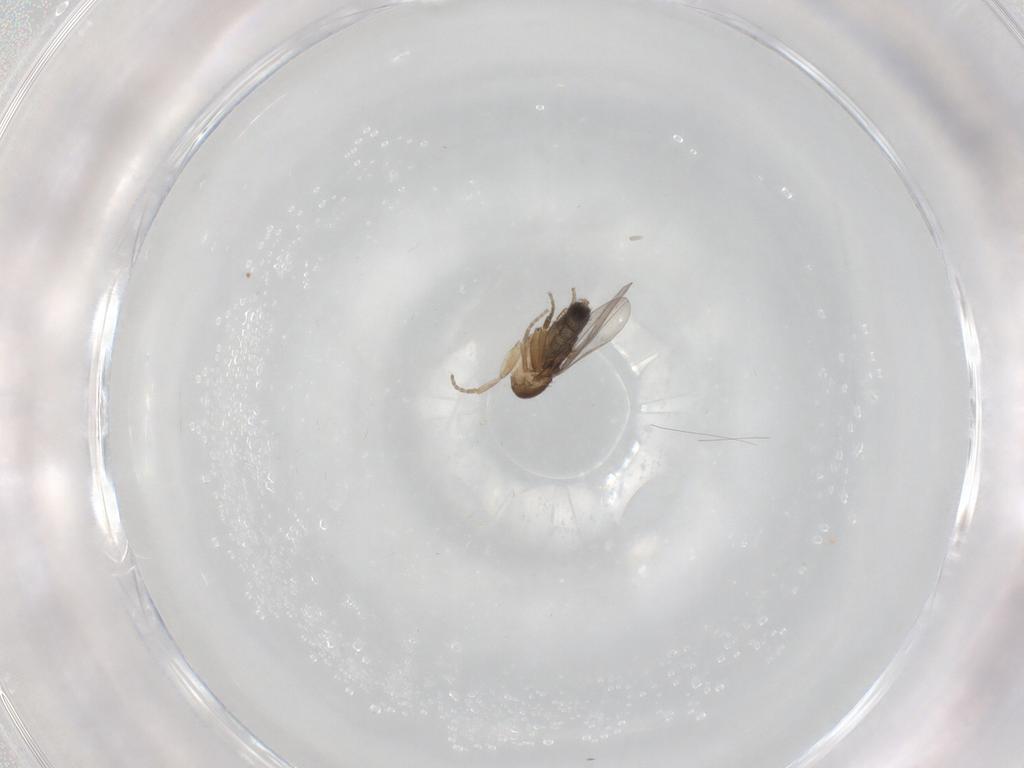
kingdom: Animalia
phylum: Arthropoda
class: Insecta
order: Diptera
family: Phoridae
